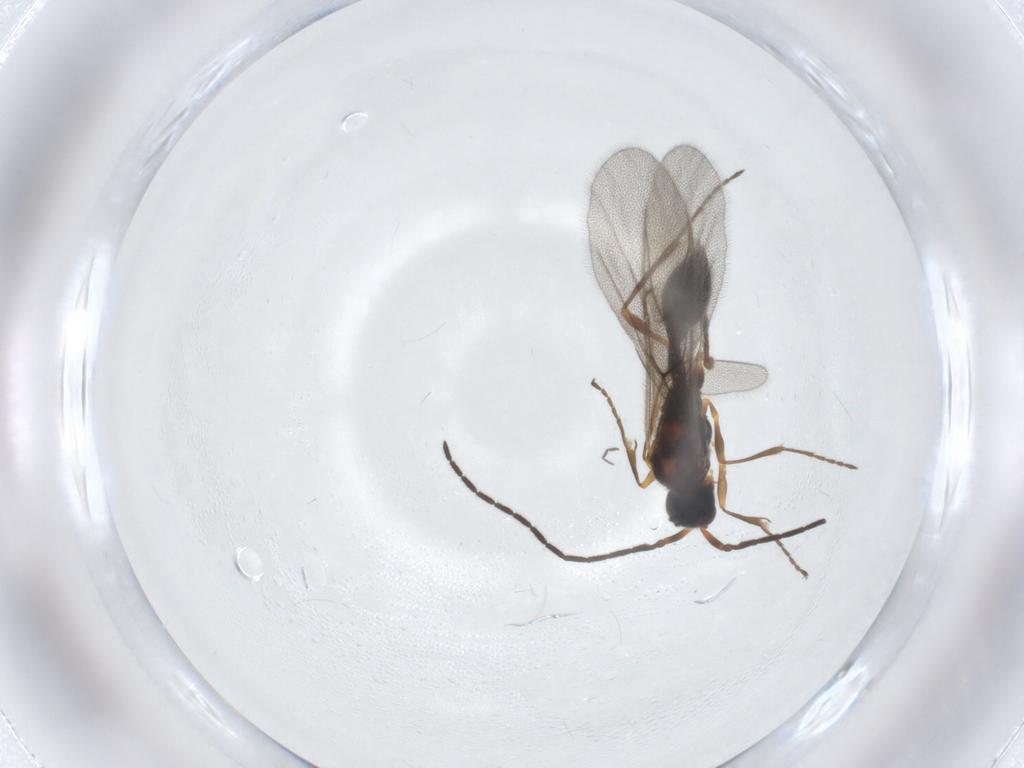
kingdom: Animalia
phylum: Arthropoda
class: Insecta
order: Hymenoptera
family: Diapriidae
